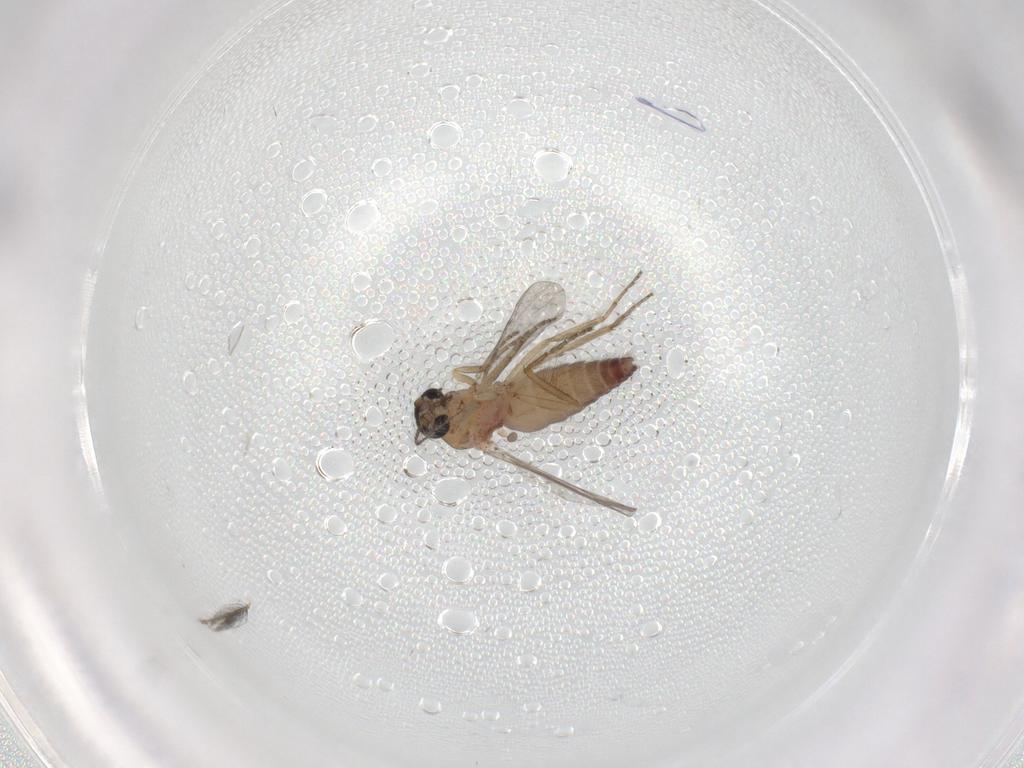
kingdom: Animalia
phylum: Arthropoda
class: Insecta
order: Diptera
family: Ceratopogonidae
